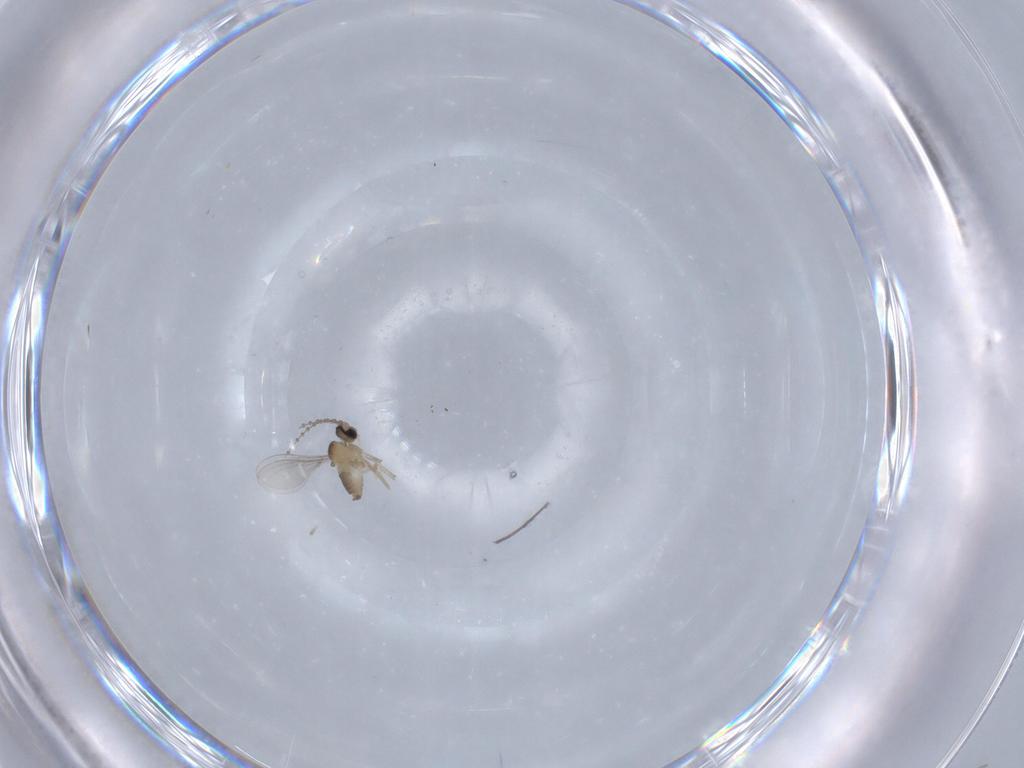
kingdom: Animalia
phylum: Arthropoda
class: Insecta
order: Diptera
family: Cecidomyiidae
